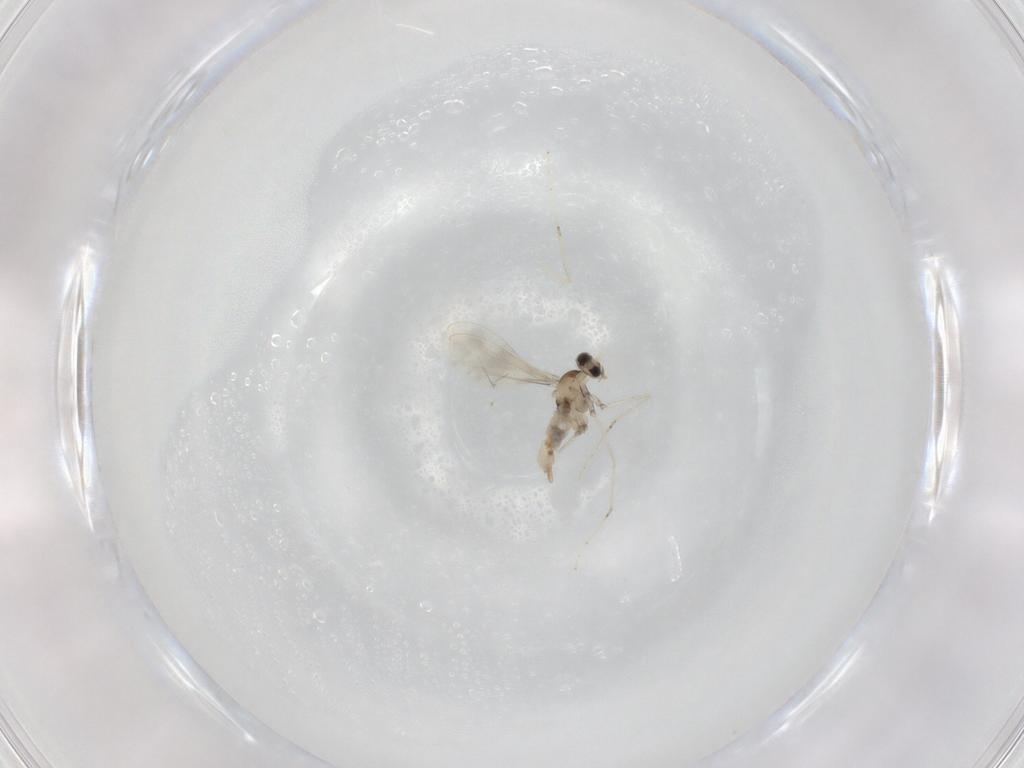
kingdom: Animalia
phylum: Arthropoda
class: Insecta
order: Diptera
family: Cecidomyiidae
